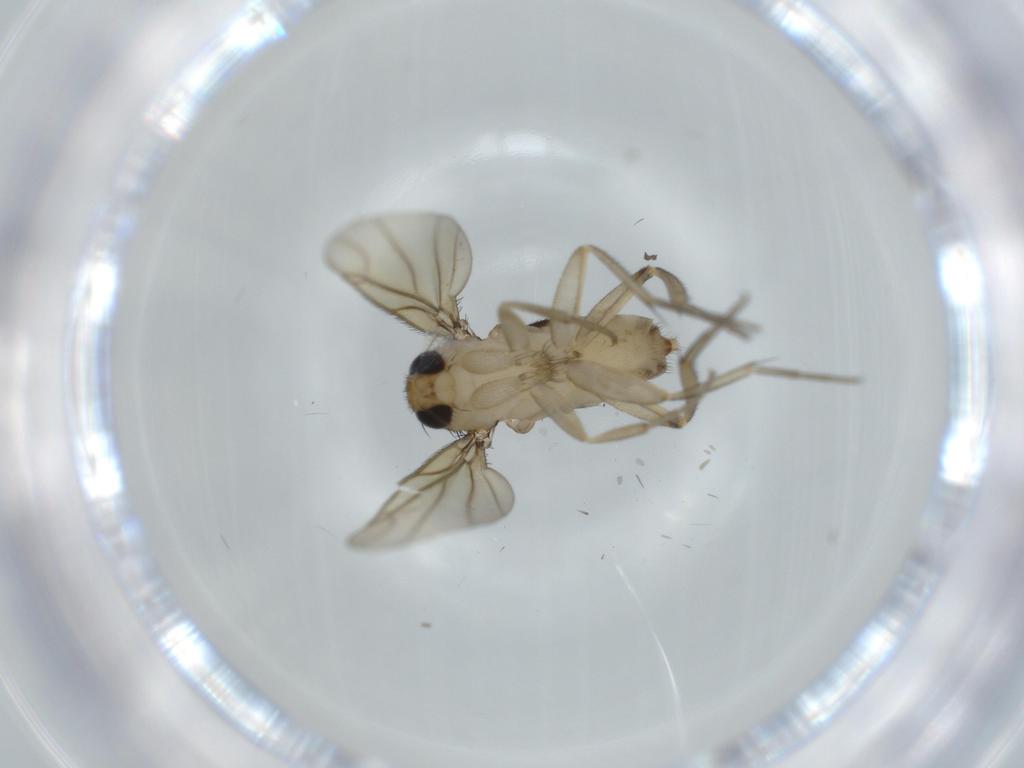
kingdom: Animalia
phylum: Arthropoda
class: Insecta
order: Diptera
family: Phoridae
